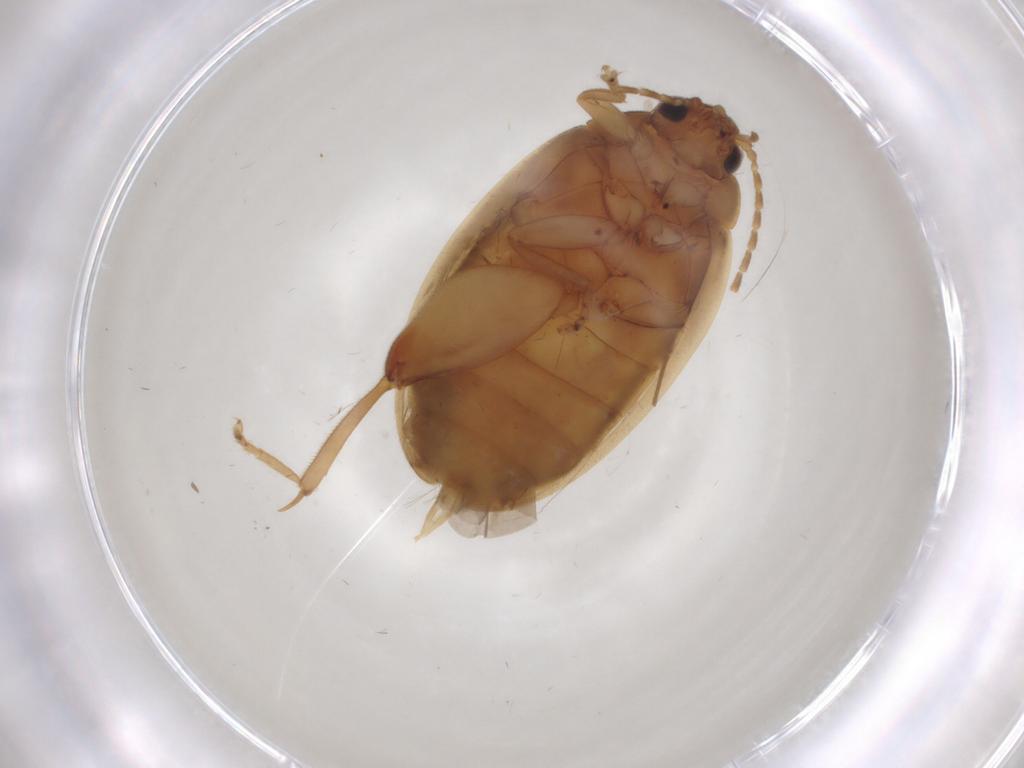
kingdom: Animalia
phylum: Arthropoda
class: Insecta
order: Coleoptera
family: Scirtidae
